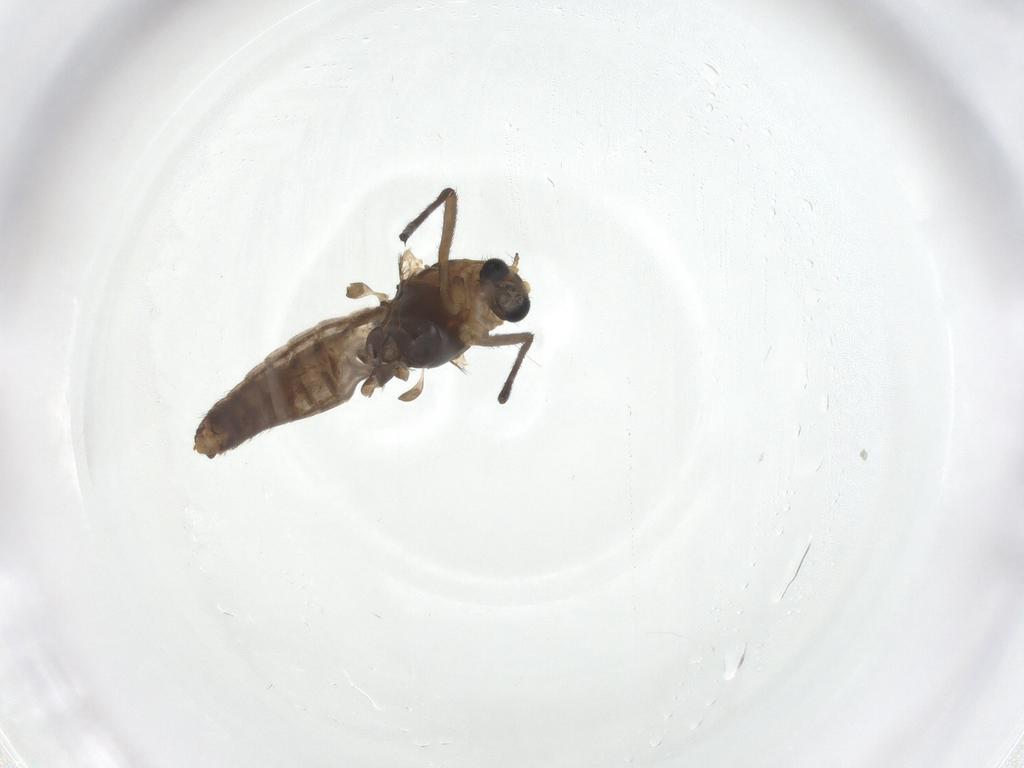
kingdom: Animalia
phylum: Arthropoda
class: Insecta
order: Diptera
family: Chironomidae
